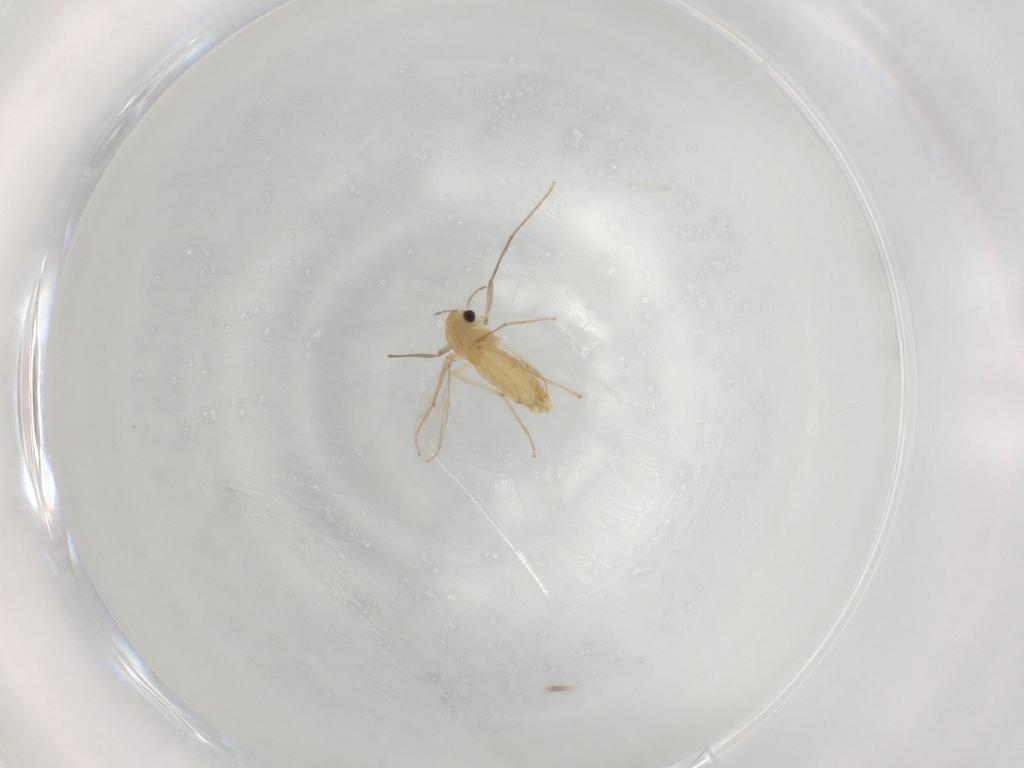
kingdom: Animalia
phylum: Arthropoda
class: Insecta
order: Diptera
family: Chironomidae
